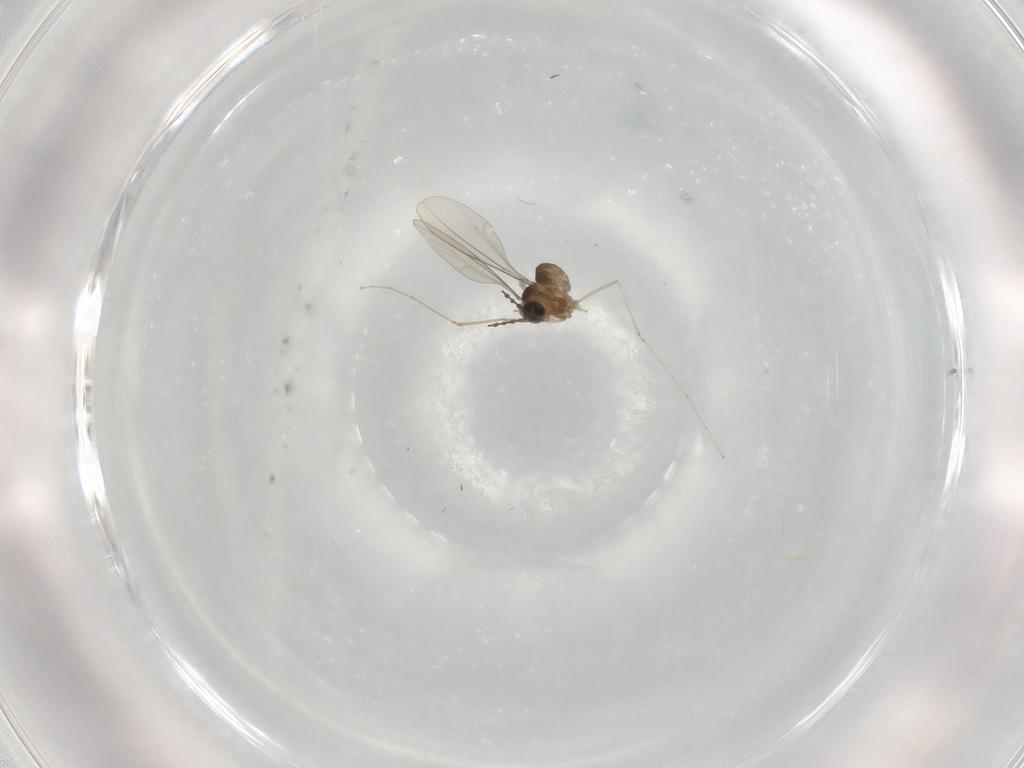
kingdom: Animalia
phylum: Arthropoda
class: Insecta
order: Diptera
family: Cecidomyiidae
